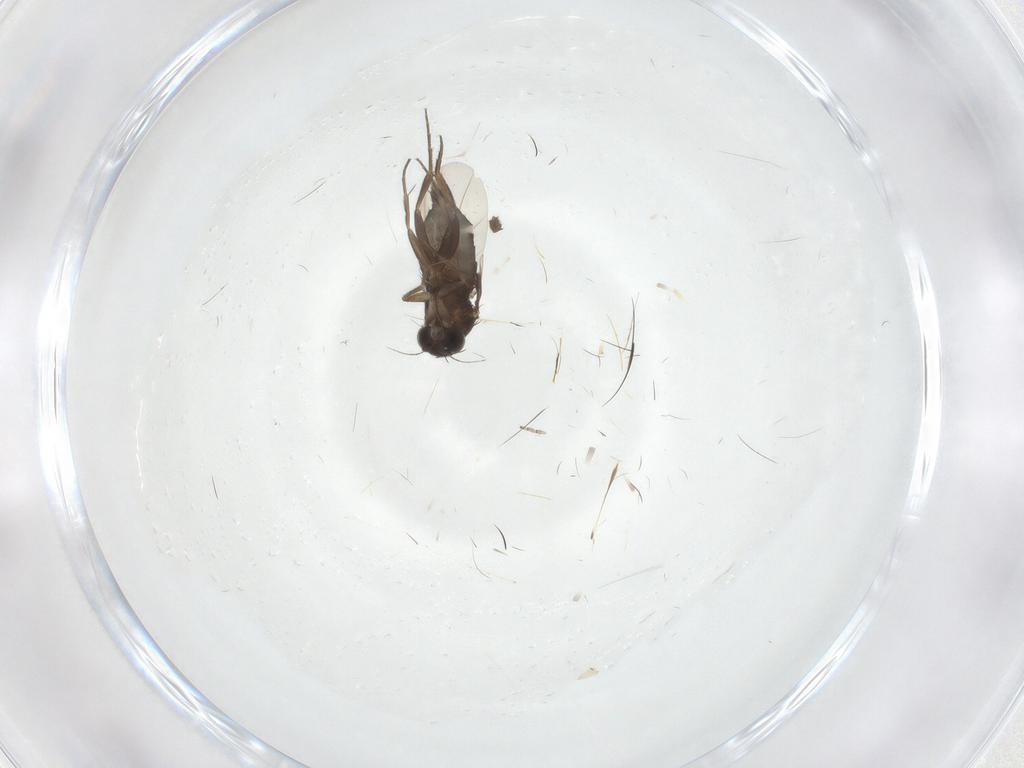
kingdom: Animalia
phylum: Arthropoda
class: Insecta
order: Diptera
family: Phoridae
